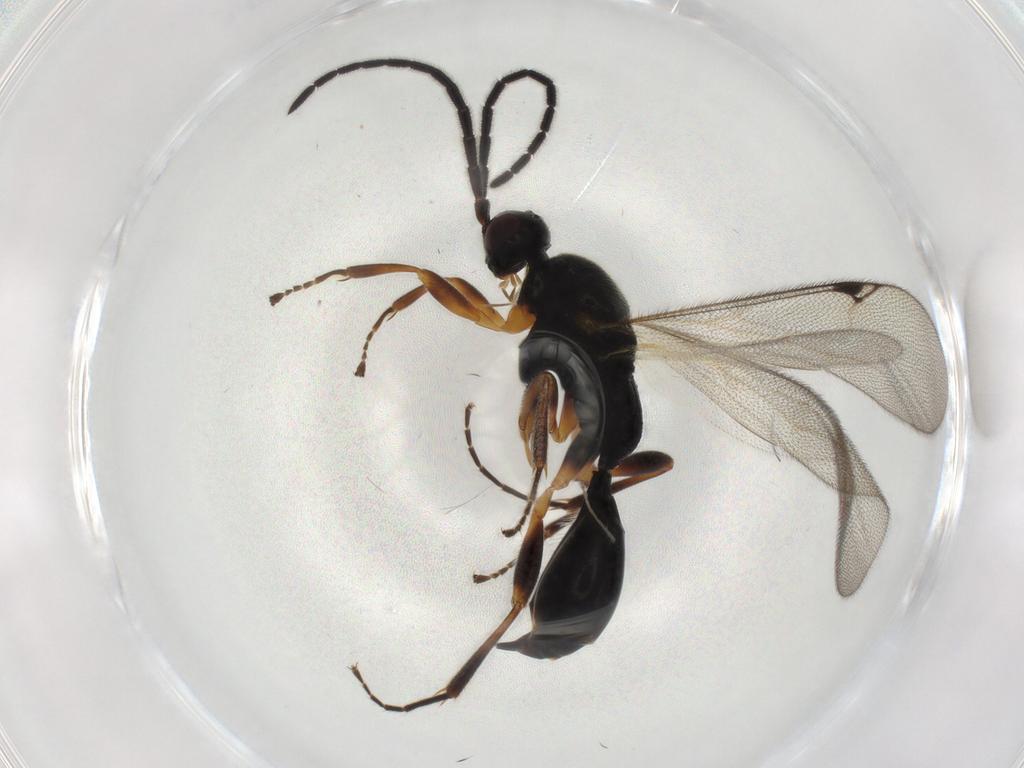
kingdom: Animalia
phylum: Arthropoda
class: Insecta
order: Hymenoptera
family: Proctotrupidae
